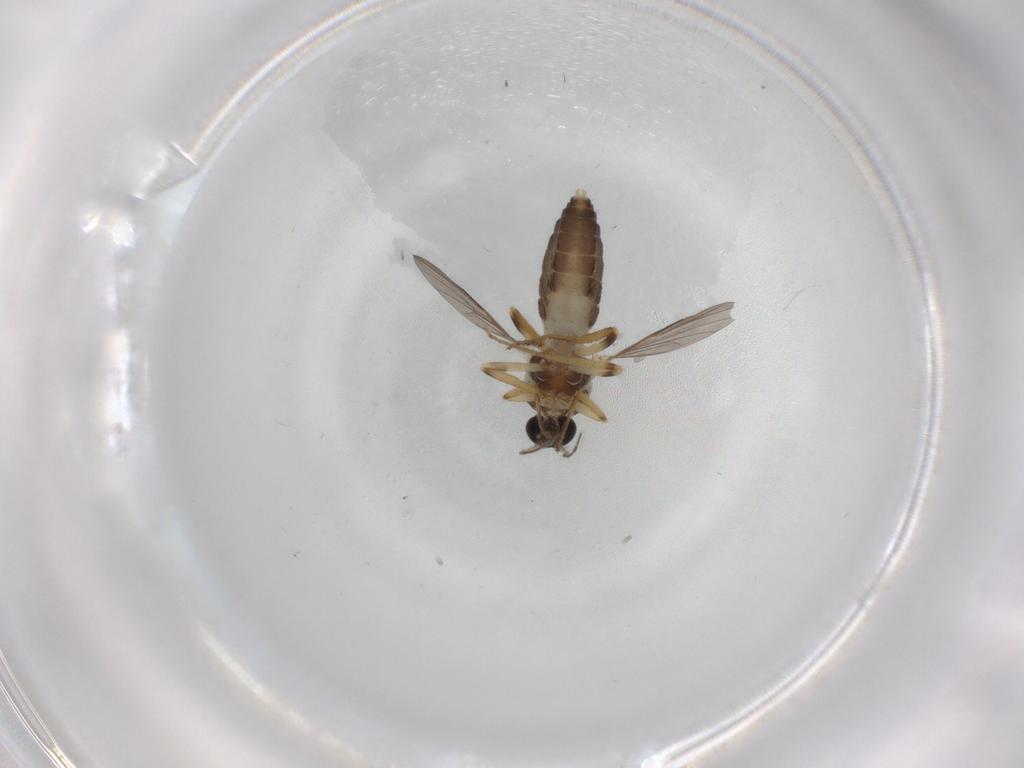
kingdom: Animalia
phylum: Arthropoda
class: Insecta
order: Diptera
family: Ceratopogonidae
